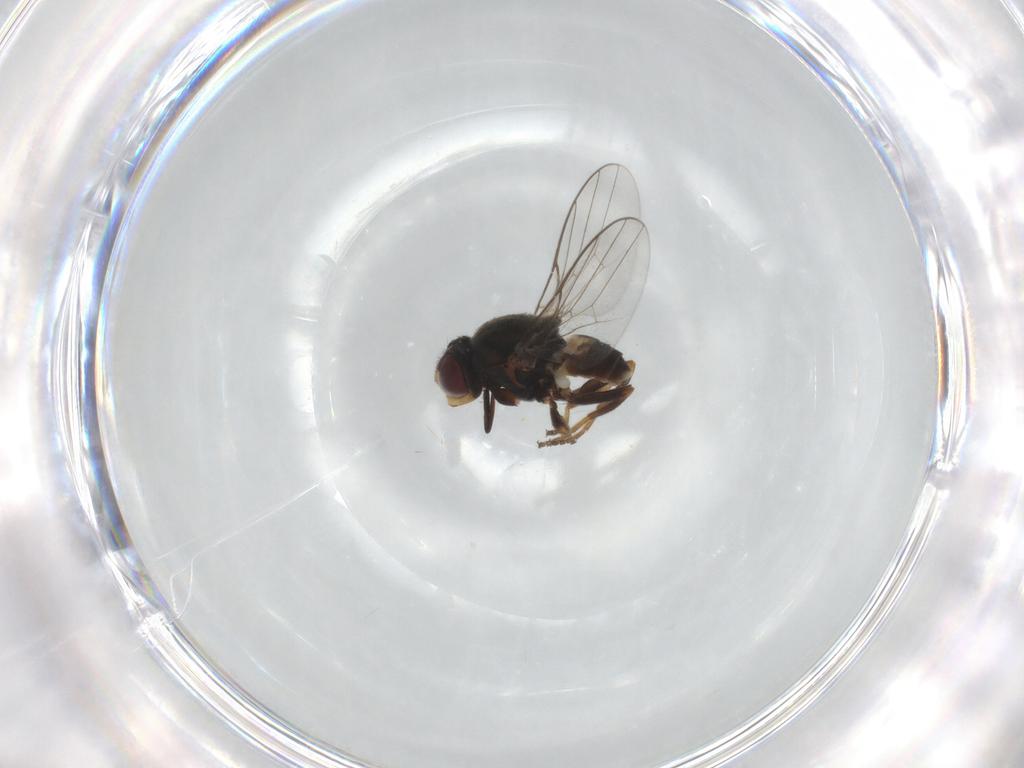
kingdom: Animalia
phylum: Arthropoda
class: Insecta
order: Diptera
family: Chloropidae
